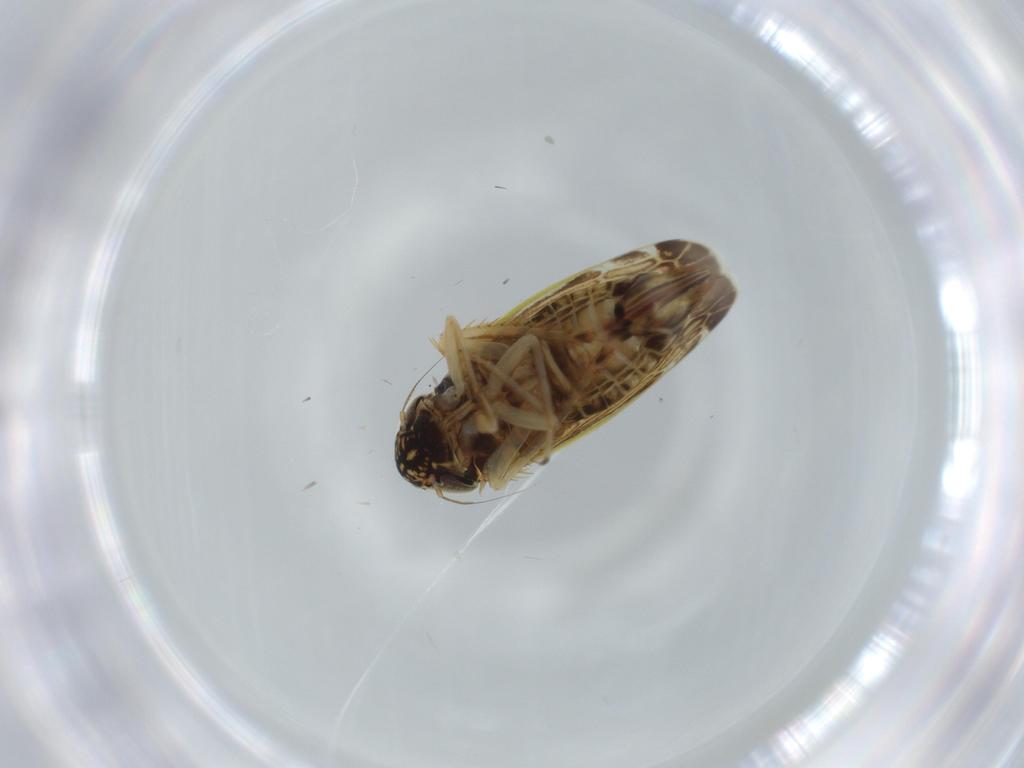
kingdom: Animalia
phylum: Arthropoda
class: Insecta
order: Hemiptera
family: Cicadellidae
